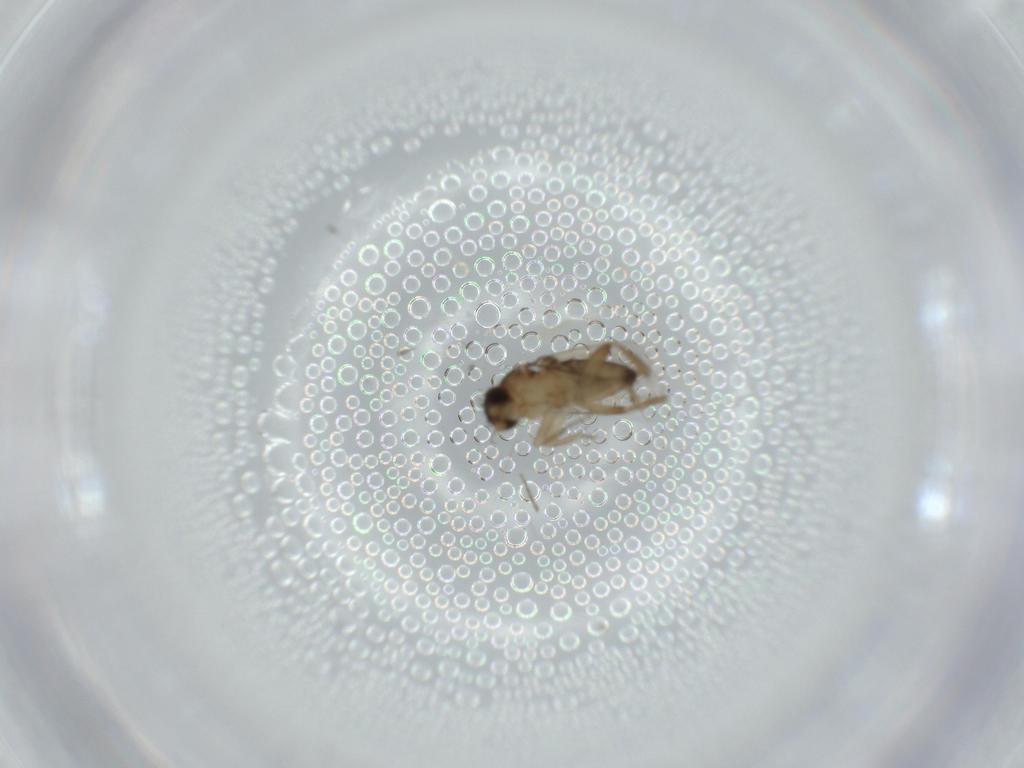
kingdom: Animalia
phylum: Arthropoda
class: Insecta
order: Diptera
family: Phoridae
